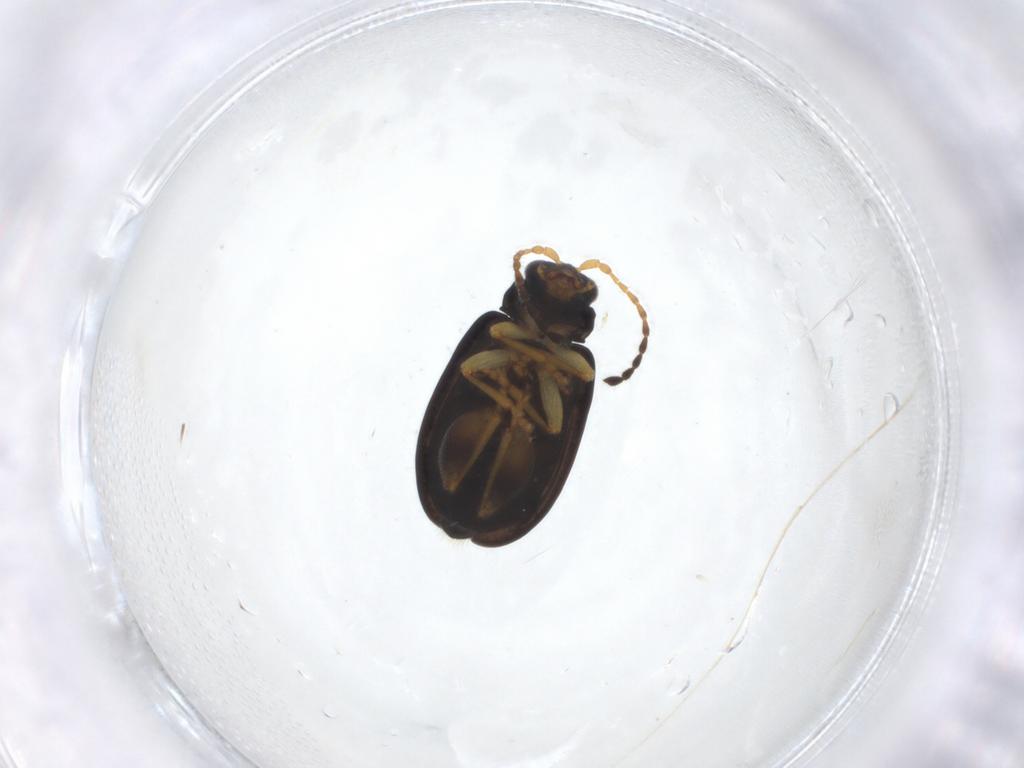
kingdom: Animalia
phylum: Arthropoda
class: Insecta
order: Coleoptera
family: Chrysomelidae
